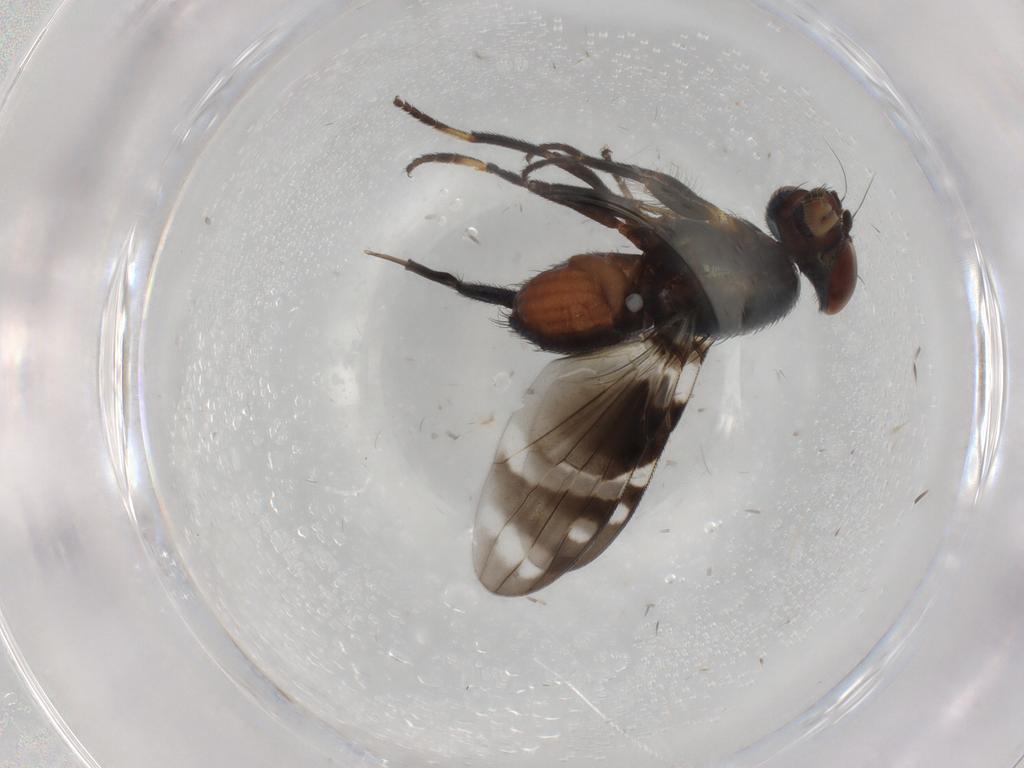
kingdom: Animalia
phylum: Arthropoda
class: Insecta
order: Diptera
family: Ulidiidae
